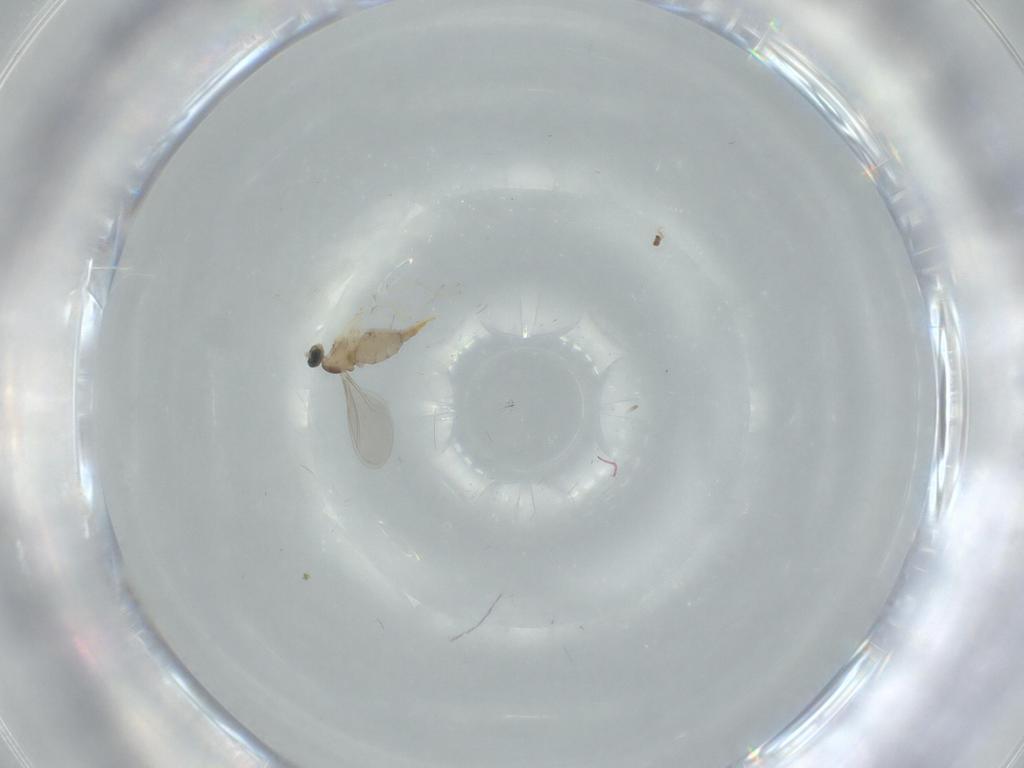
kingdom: Animalia
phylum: Arthropoda
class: Insecta
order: Diptera
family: Cecidomyiidae
